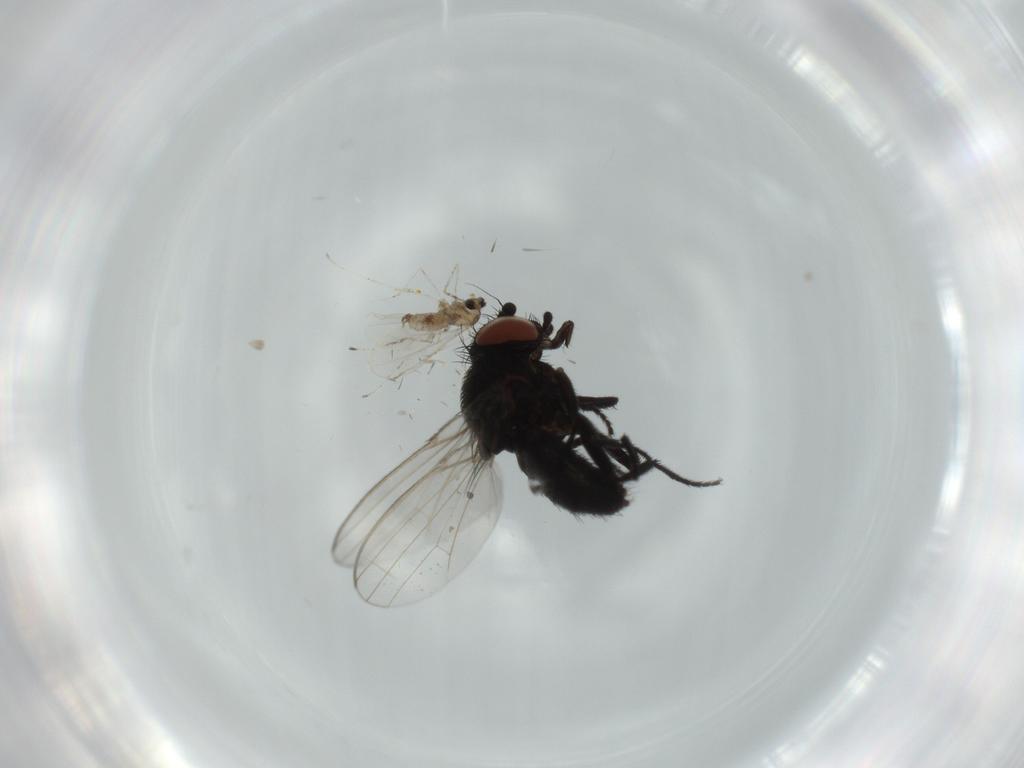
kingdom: Animalia
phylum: Arthropoda
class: Insecta
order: Diptera
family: Cecidomyiidae
